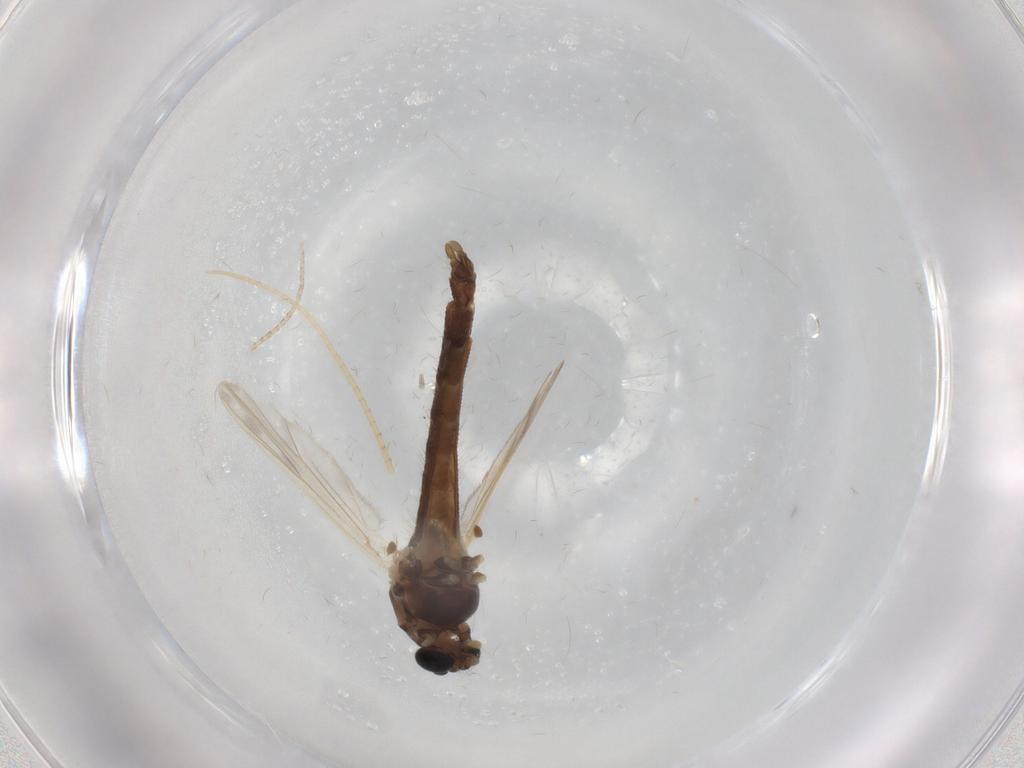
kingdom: Animalia
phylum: Arthropoda
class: Insecta
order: Diptera
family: Chironomidae
